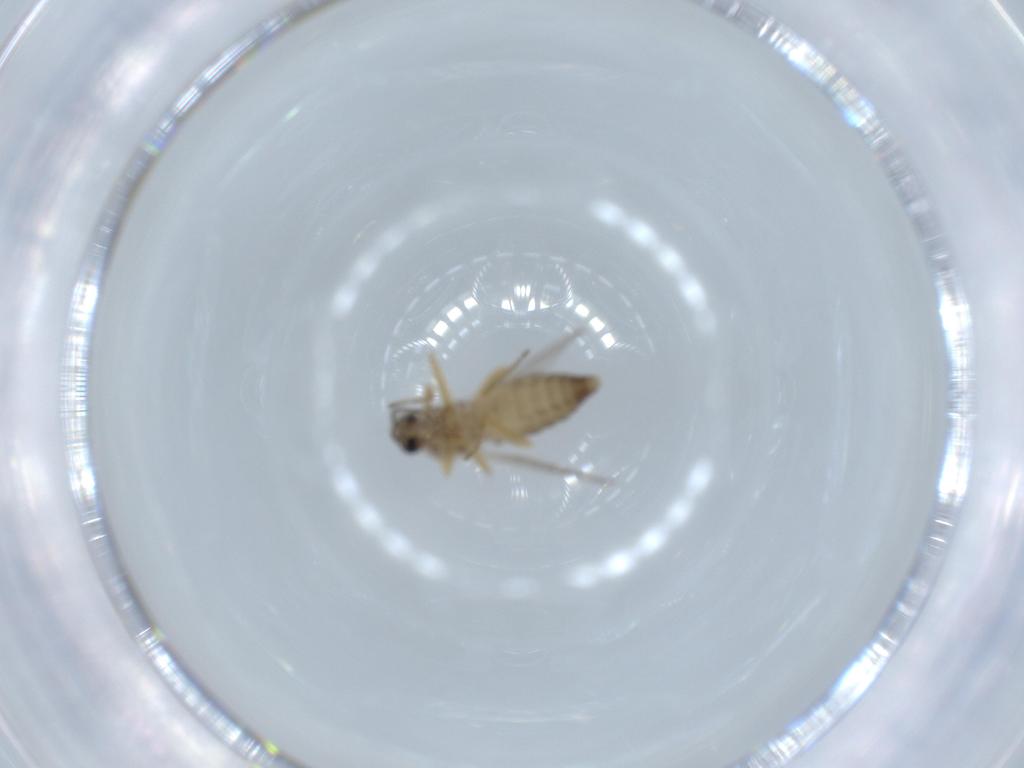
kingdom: Animalia
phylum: Arthropoda
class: Insecta
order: Diptera
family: Ceratopogonidae
